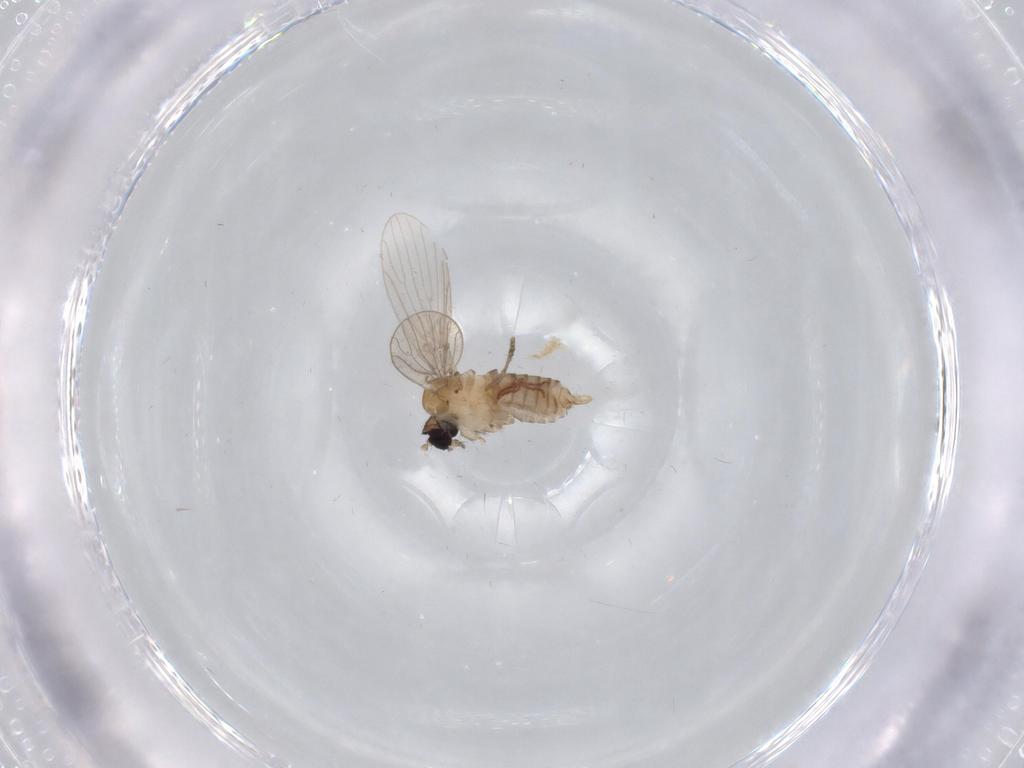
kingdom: Animalia
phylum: Arthropoda
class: Insecta
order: Diptera
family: Psychodidae
